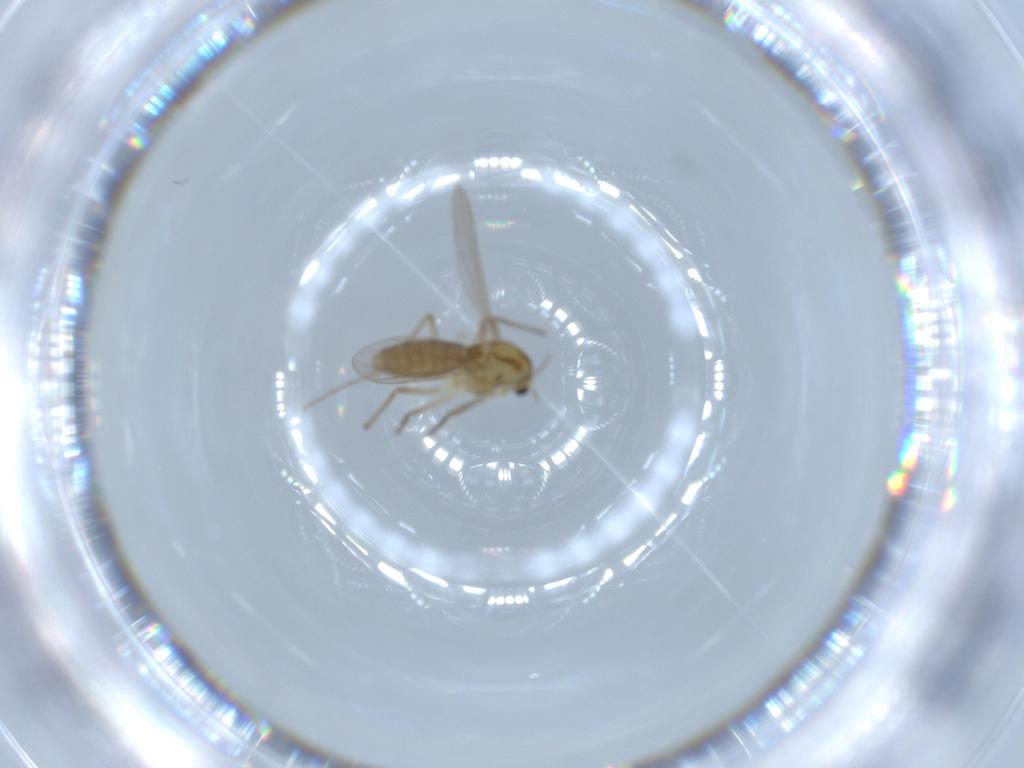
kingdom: Animalia
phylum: Arthropoda
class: Insecta
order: Diptera
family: Chironomidae
